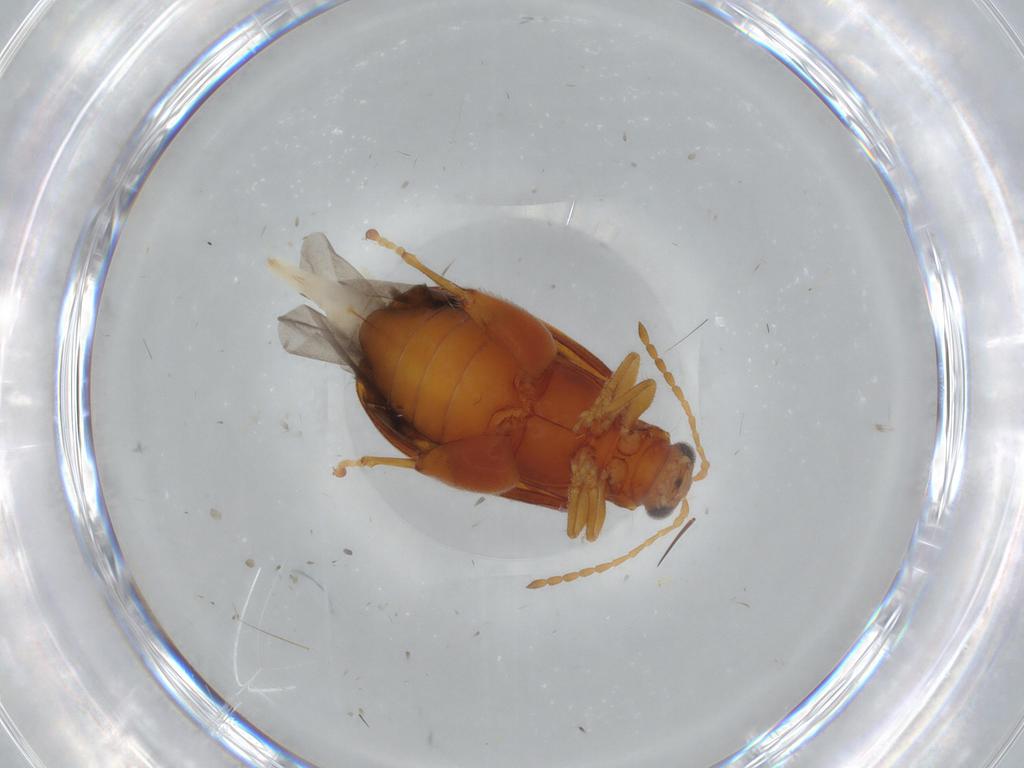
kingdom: Animalia
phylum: Arthropoda
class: Insecta
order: Coleoptera
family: Chrysomelidae
